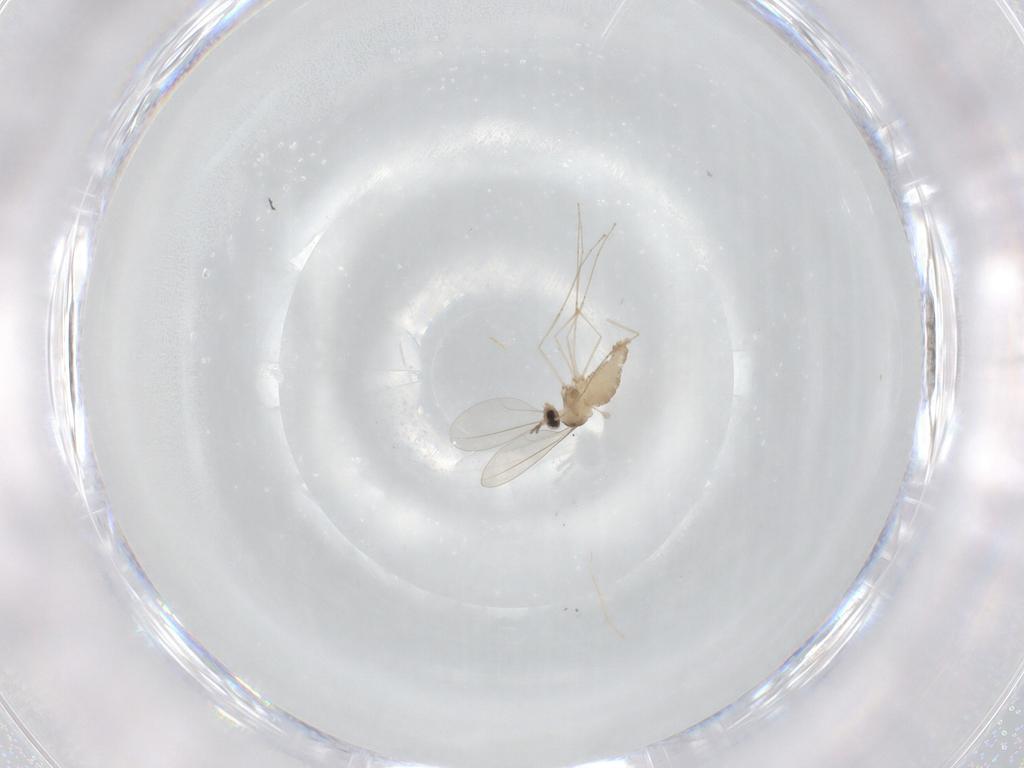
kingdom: Animalia
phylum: Arthropoda
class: Insecta
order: Diptera
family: Cecidomyiidae
